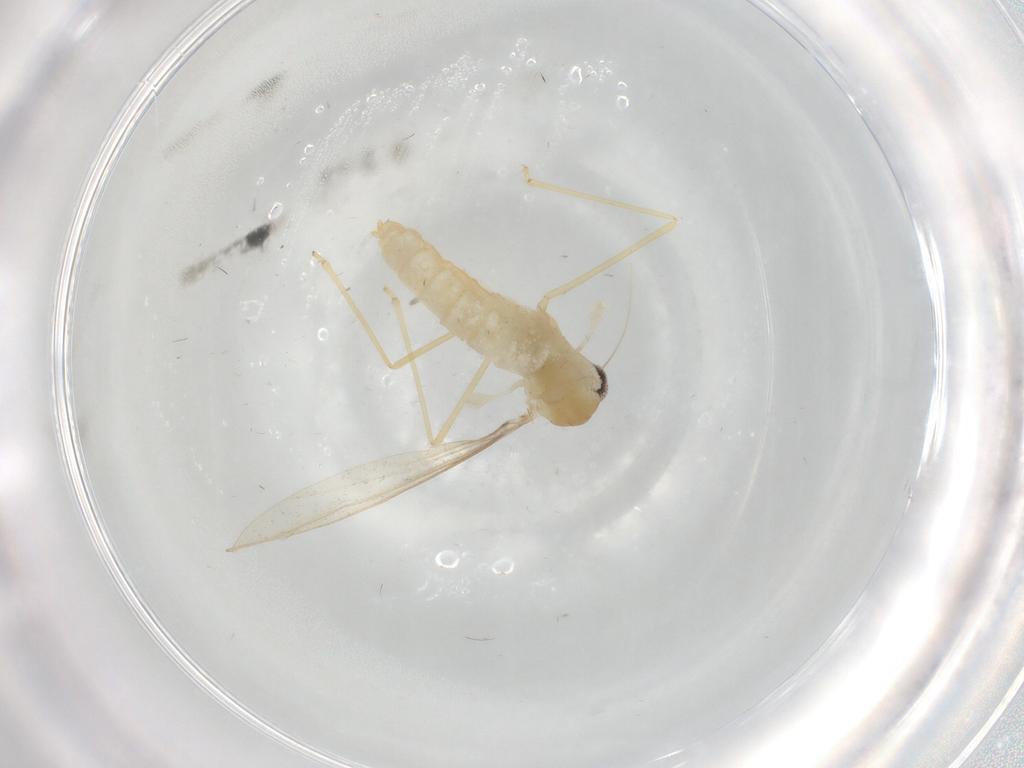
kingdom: Animalia
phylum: Arthropoda
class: Insecta
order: Diptera
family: Cecidomyiidae
